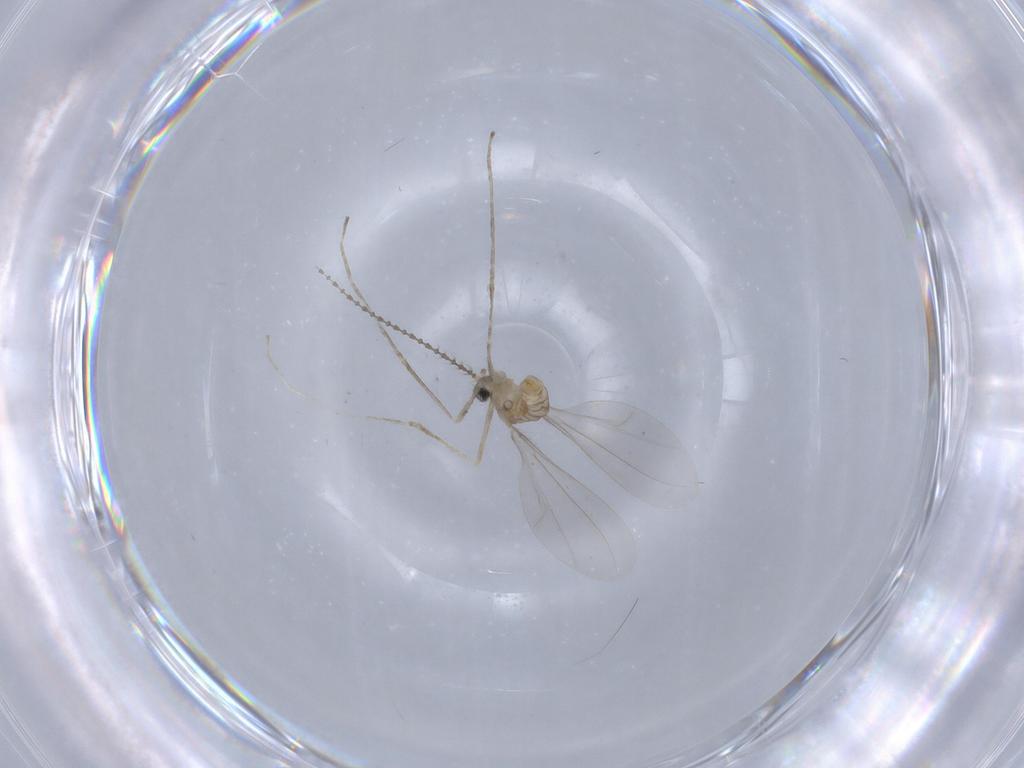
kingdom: Animalia
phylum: Arthropoda
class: Insecta
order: Diptera
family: Cecidomyiidae
